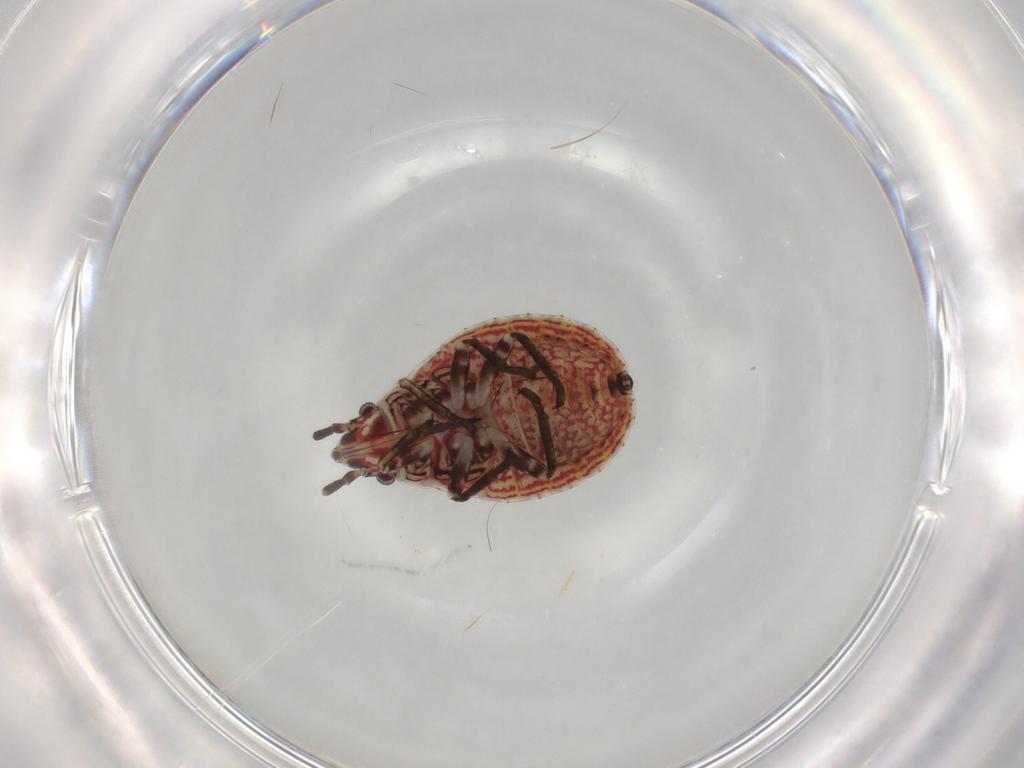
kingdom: Animalia
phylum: Arthropoda
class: Insecta
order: Hemiptera
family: Lygaeidae
